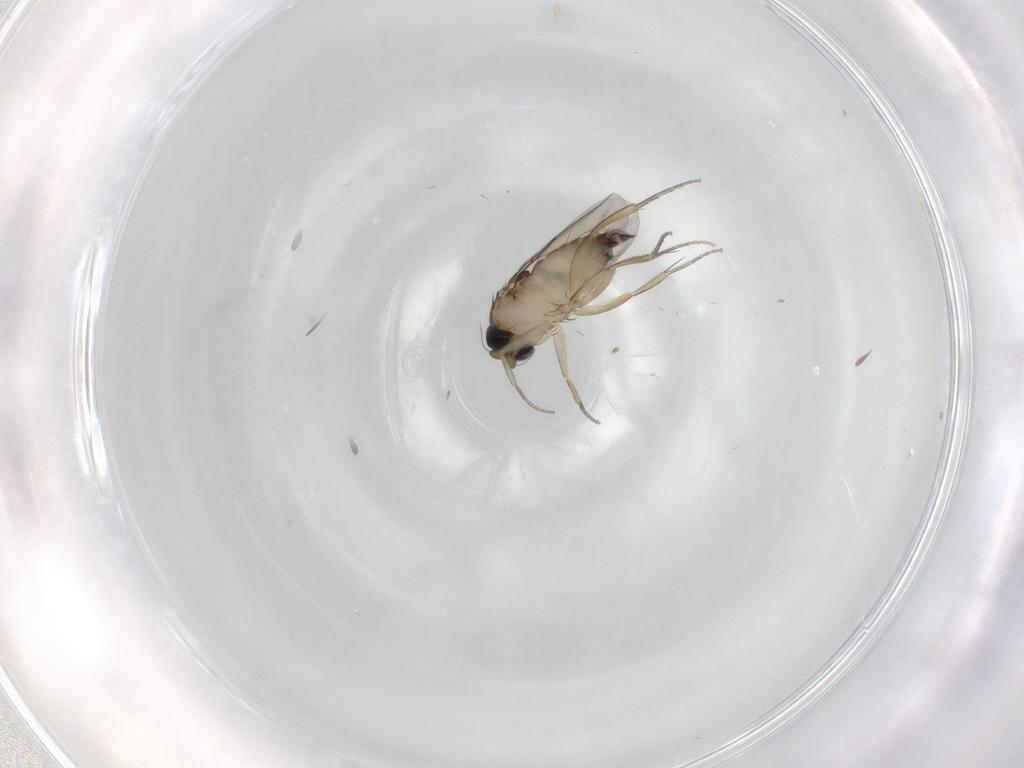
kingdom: Animalia
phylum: Arthropoda
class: Insecta
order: Diptera
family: Phoridae
